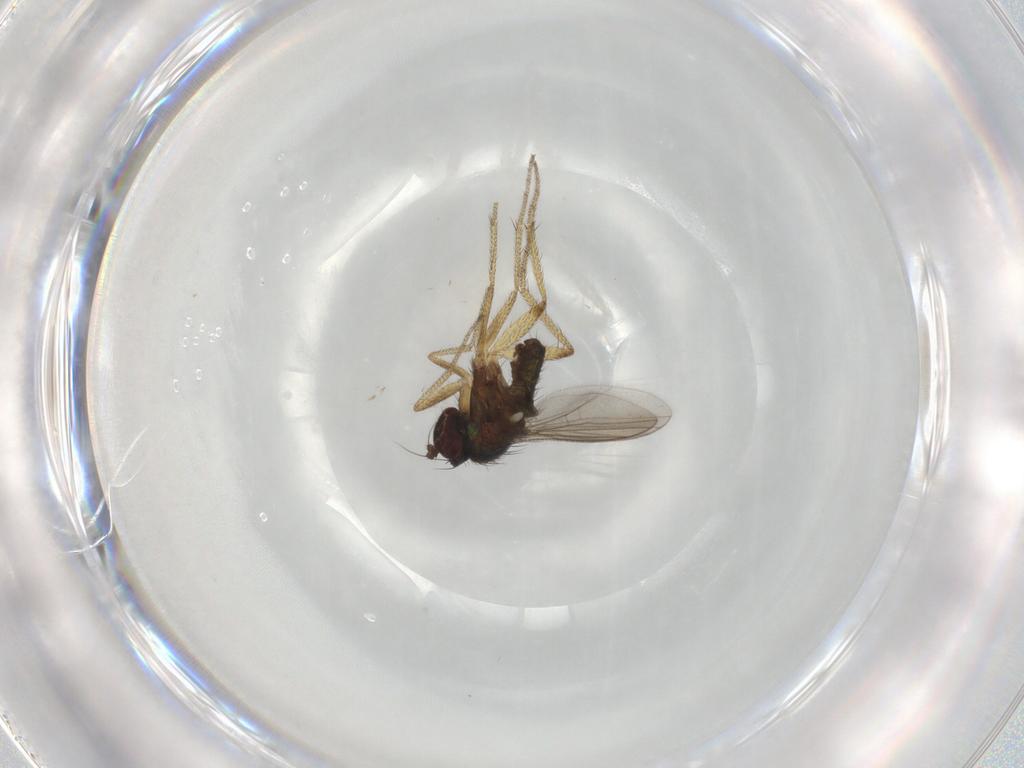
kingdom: Animalia
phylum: Arthropoda
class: Insecta
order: Diptera
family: Dolichopodidae
